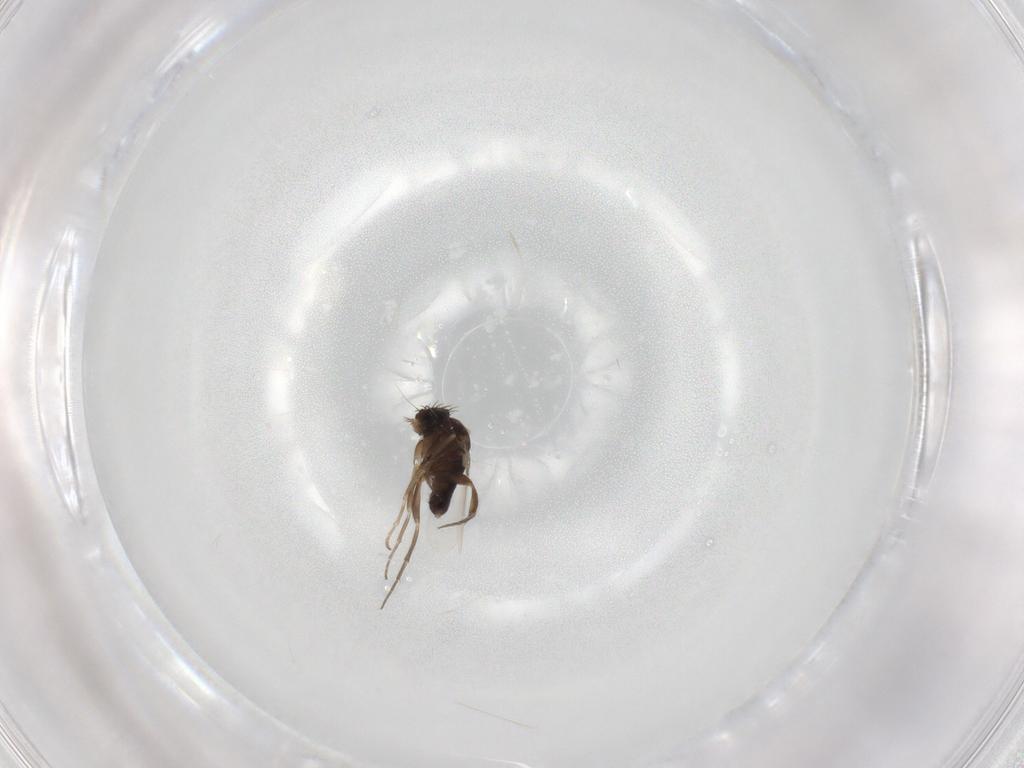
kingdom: Animalia
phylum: Arthropoda
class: Insecta
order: Diptera
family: Phoridae
